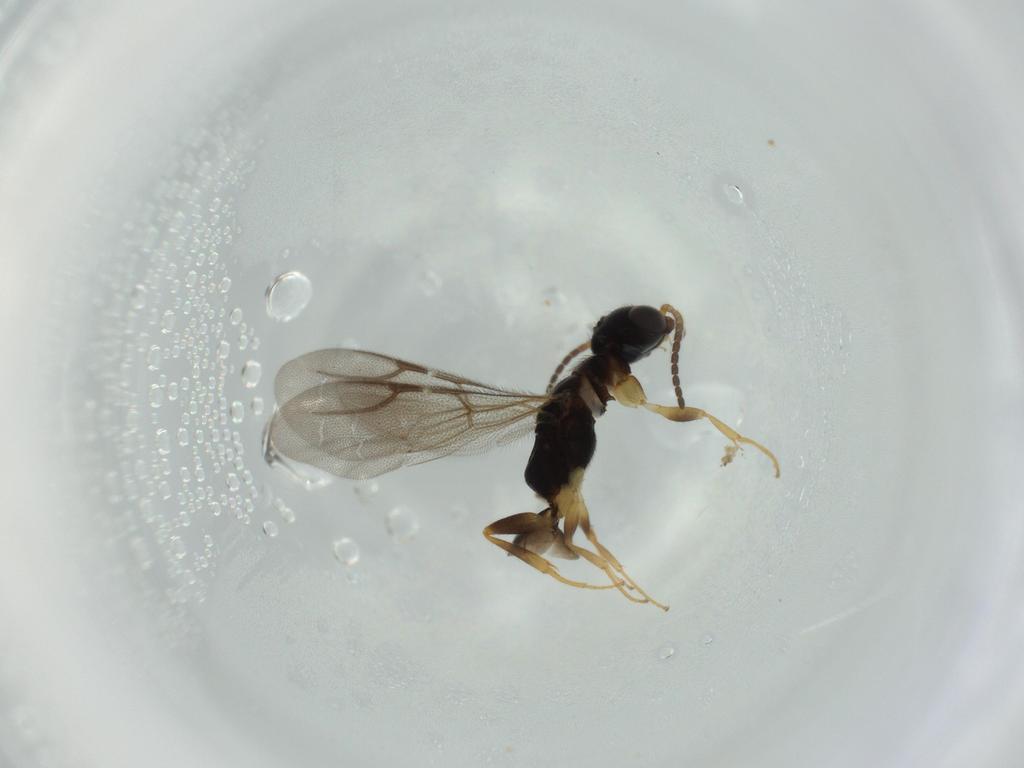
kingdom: Animalia
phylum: Arthropoda
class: Insecta
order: Hymenoptera
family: Bethylidae
